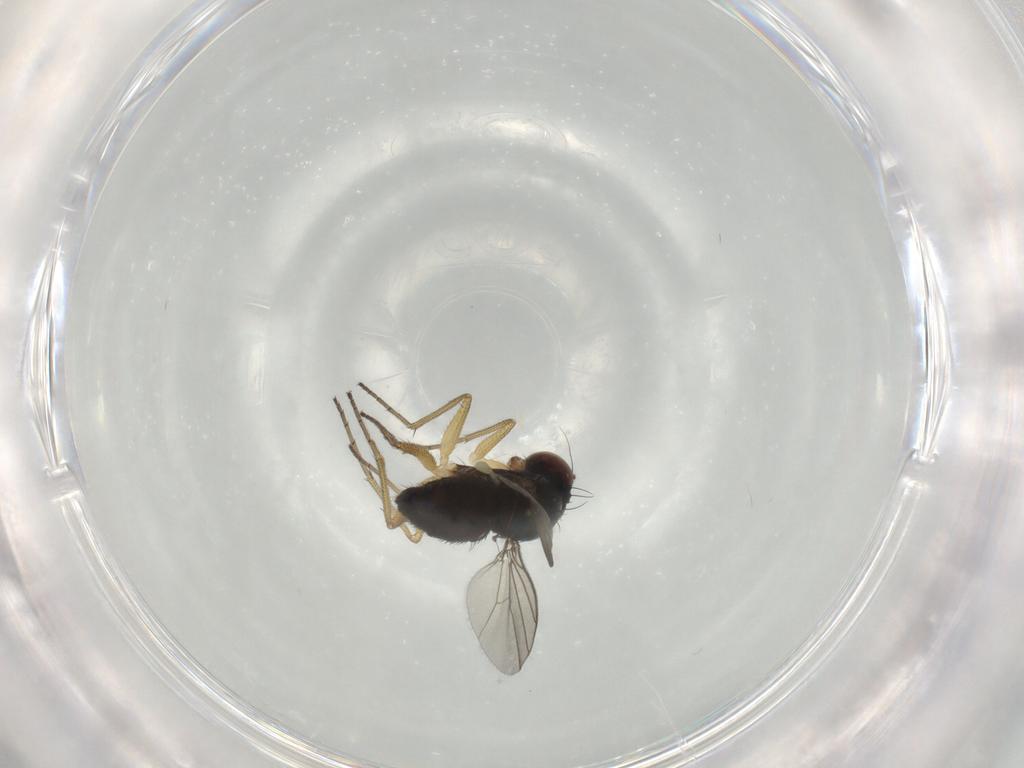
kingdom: Animalia
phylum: Arthropoda
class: Insecta
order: Diptera
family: Dolichopodidae
